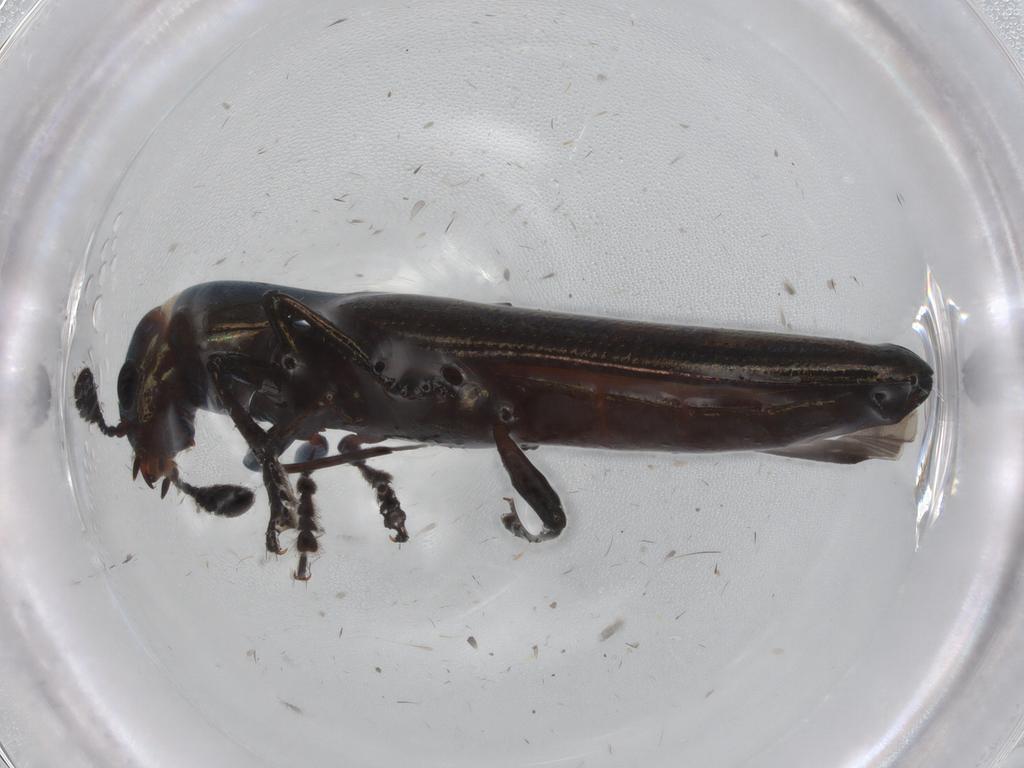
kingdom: Animalia
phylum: Arthropoda
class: Insecta
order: Coleoptera
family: Erotylidae
